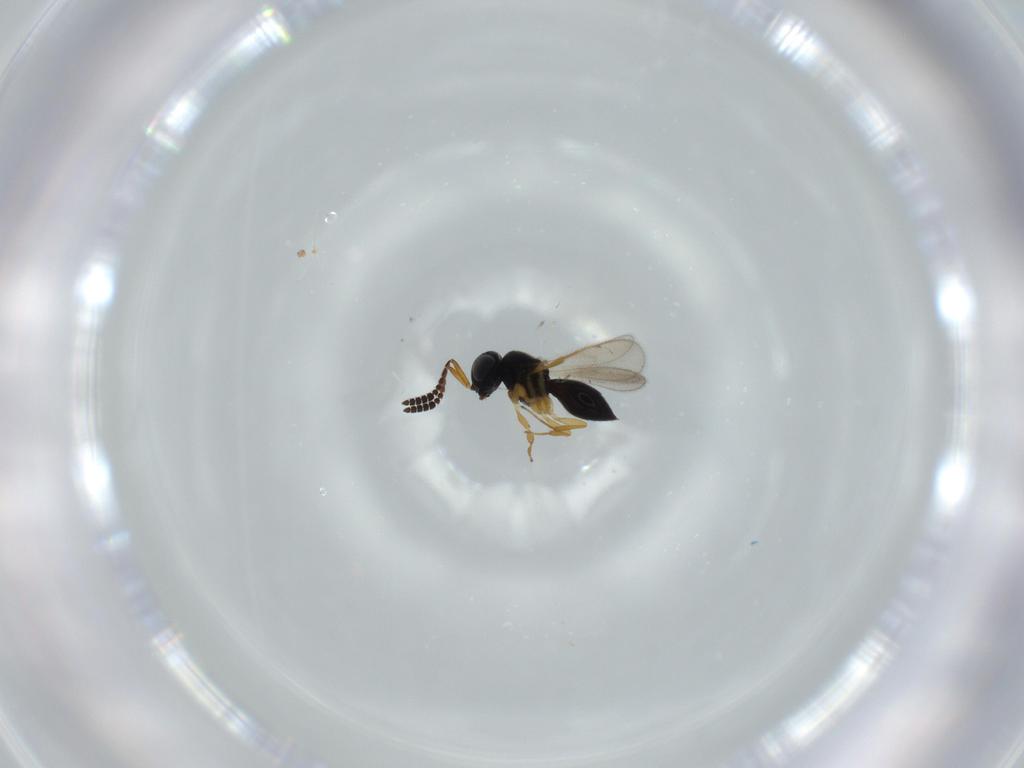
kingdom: Animalia
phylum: Arthropoda
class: Insecta
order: Hymenoptera
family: Scelionidae
